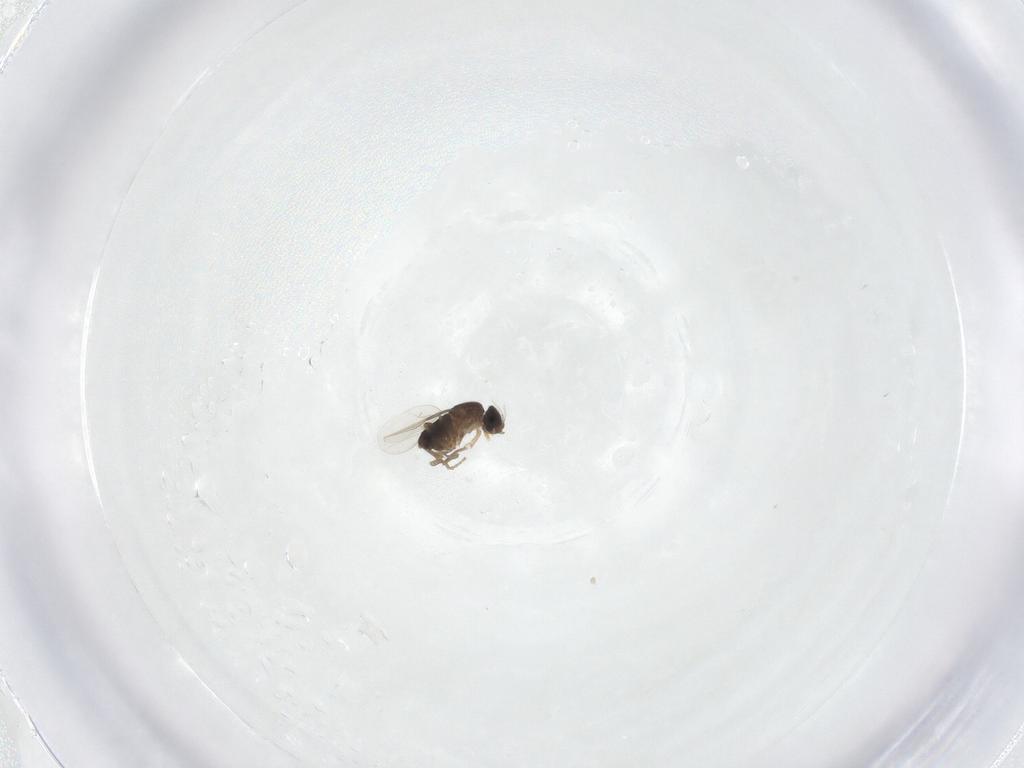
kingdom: Animalia
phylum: Arthropoda
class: Insecta
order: Diptera
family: Phoridae
